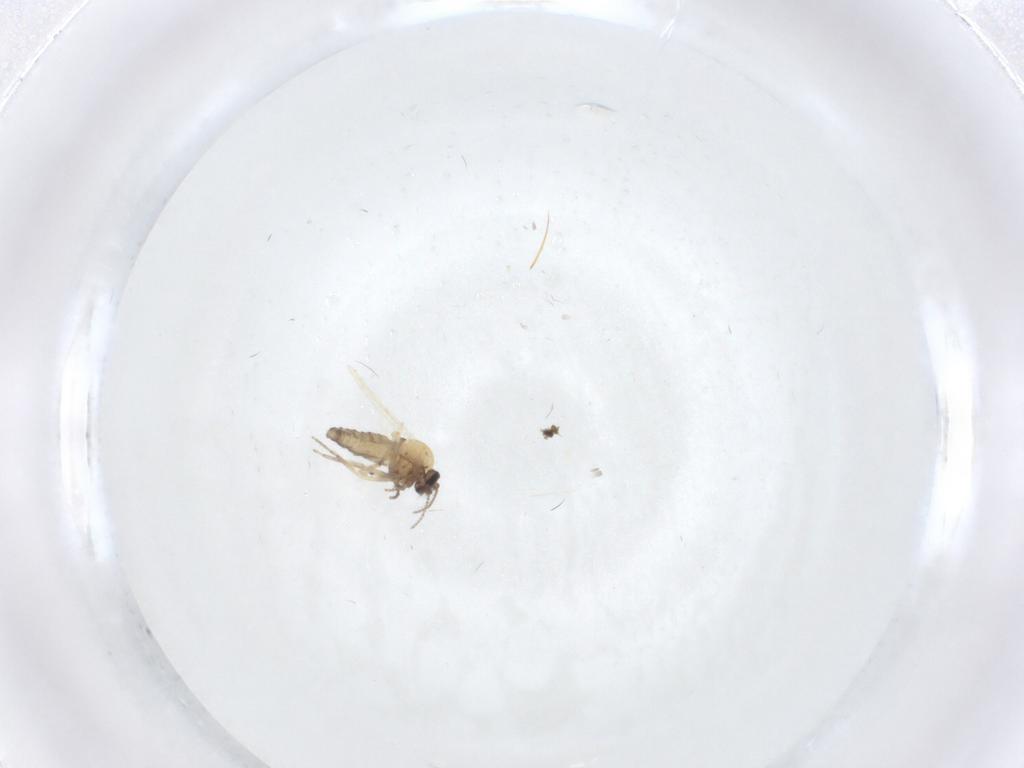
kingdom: Animalia
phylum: Arthropoda
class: Insecta
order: Diptera
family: Ceratopogonidae
